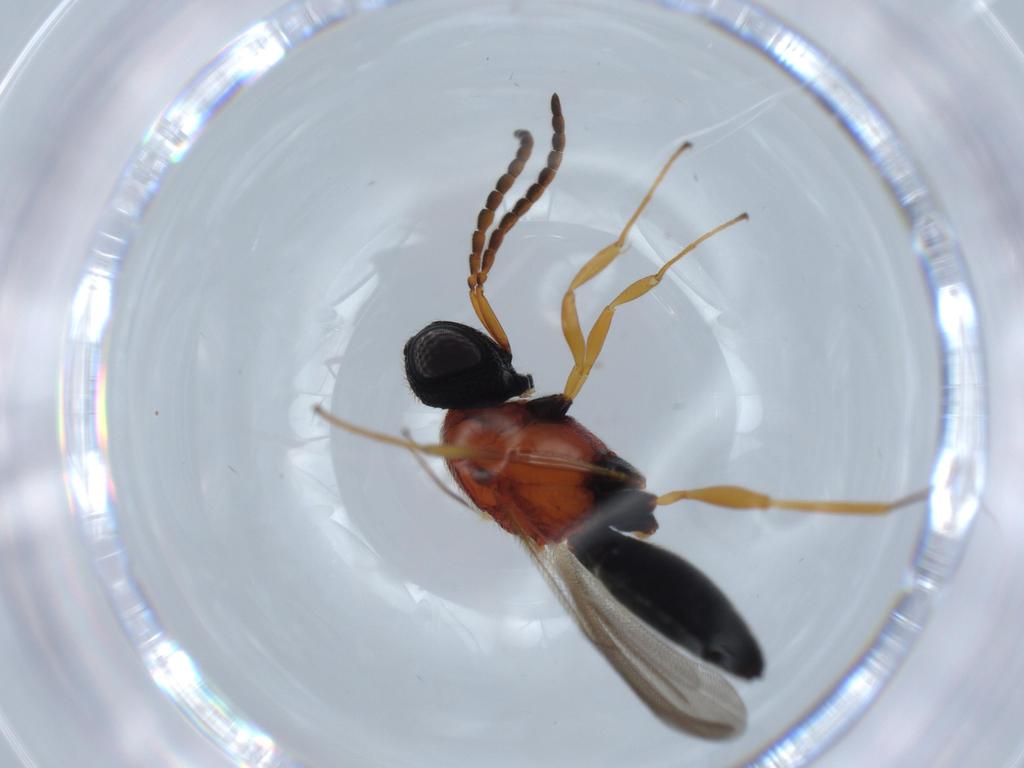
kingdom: Animalia
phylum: Arthropoda
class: Insecta
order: Hymenoptera
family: Scelionidae
